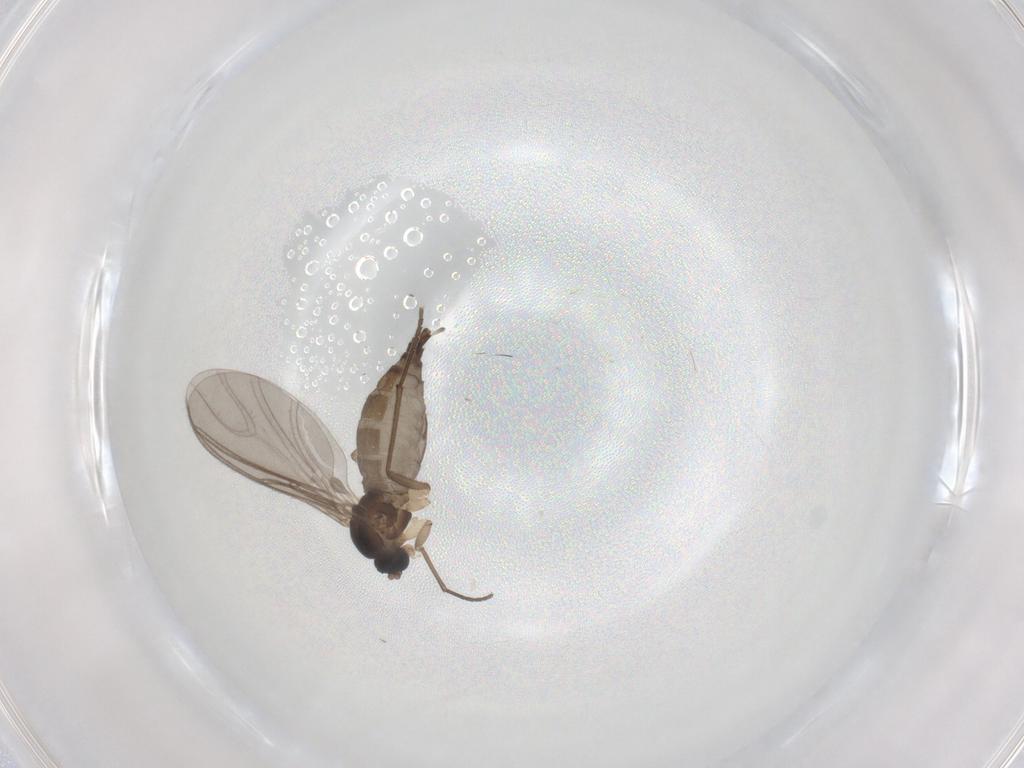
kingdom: Animalia
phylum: Arthropoda
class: Insecta
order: Diptera
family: Sciaridae
